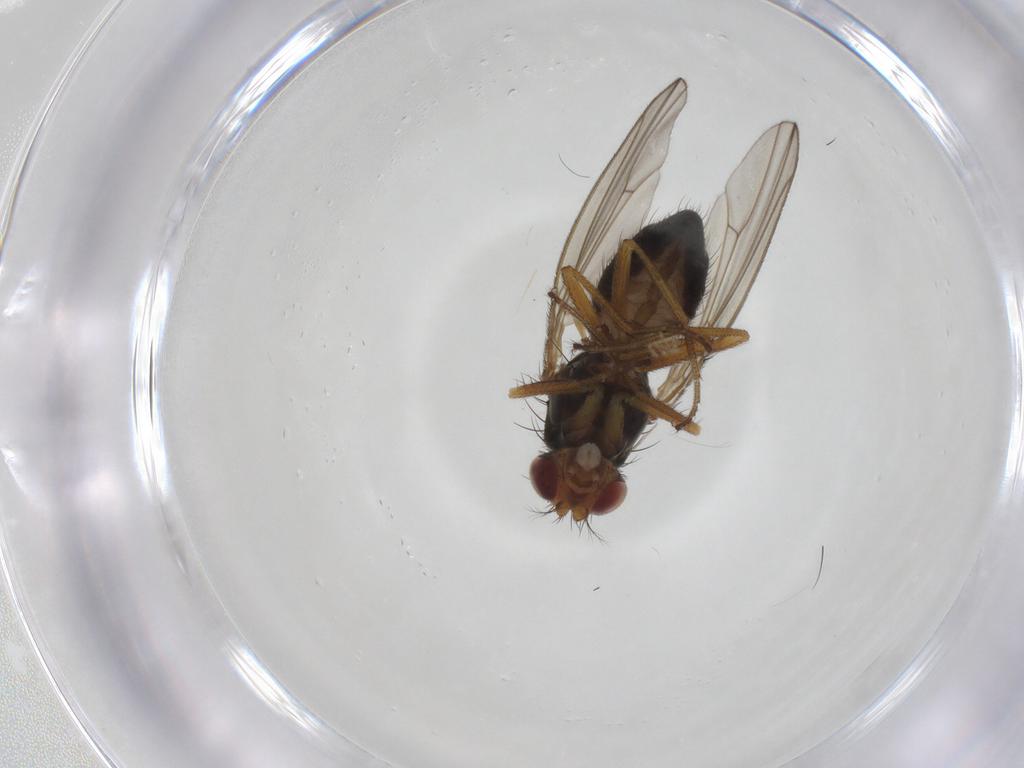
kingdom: Animalia
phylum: Arthropoda
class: Insecta
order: Diptera
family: Drosophilidae
